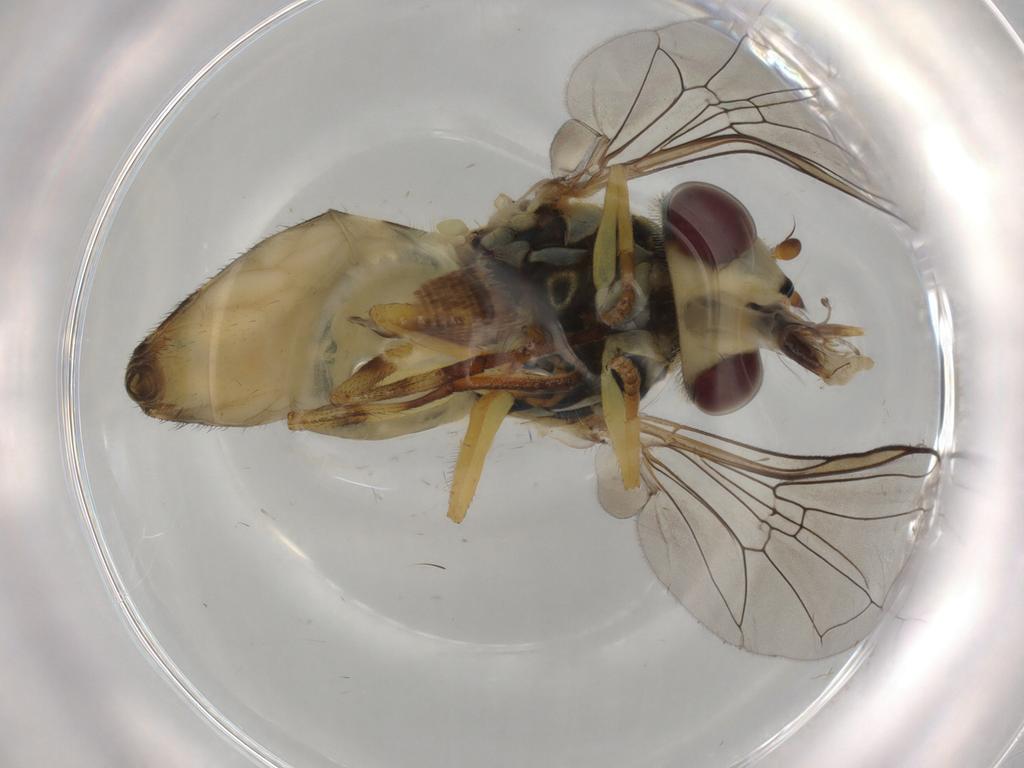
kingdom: Animalia
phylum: Arthropoda
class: Insecta
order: Diptera
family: Syrphidae
